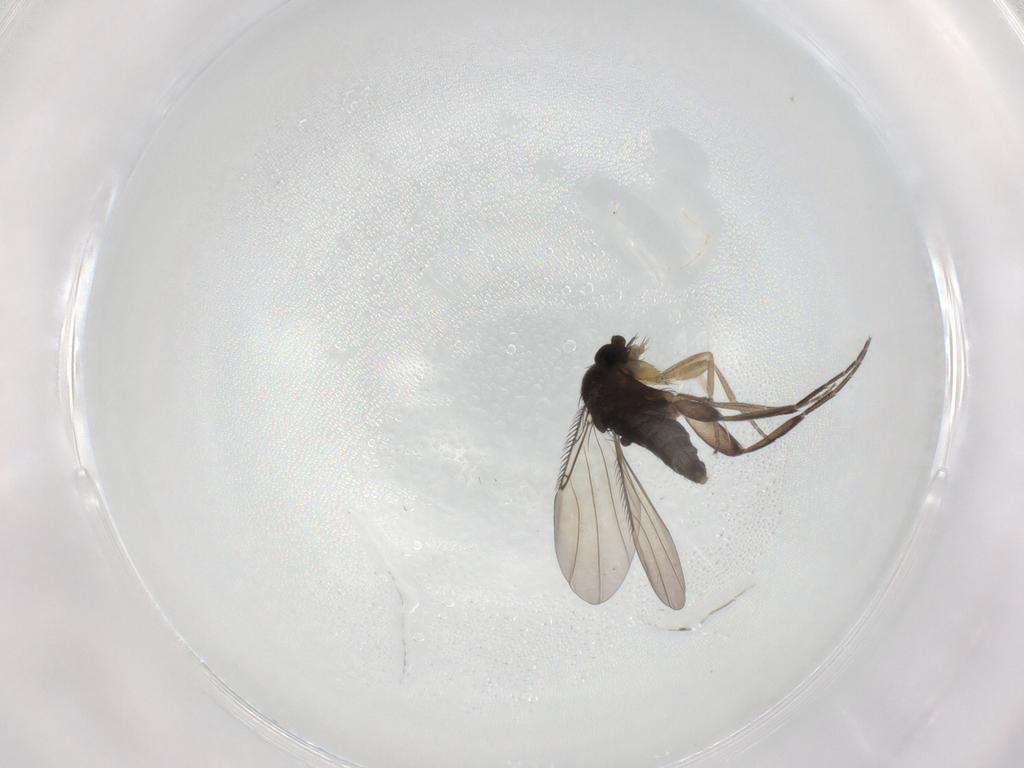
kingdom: Animalia
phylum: Arthropoda
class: Insecta
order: Diptera
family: Phoridae
